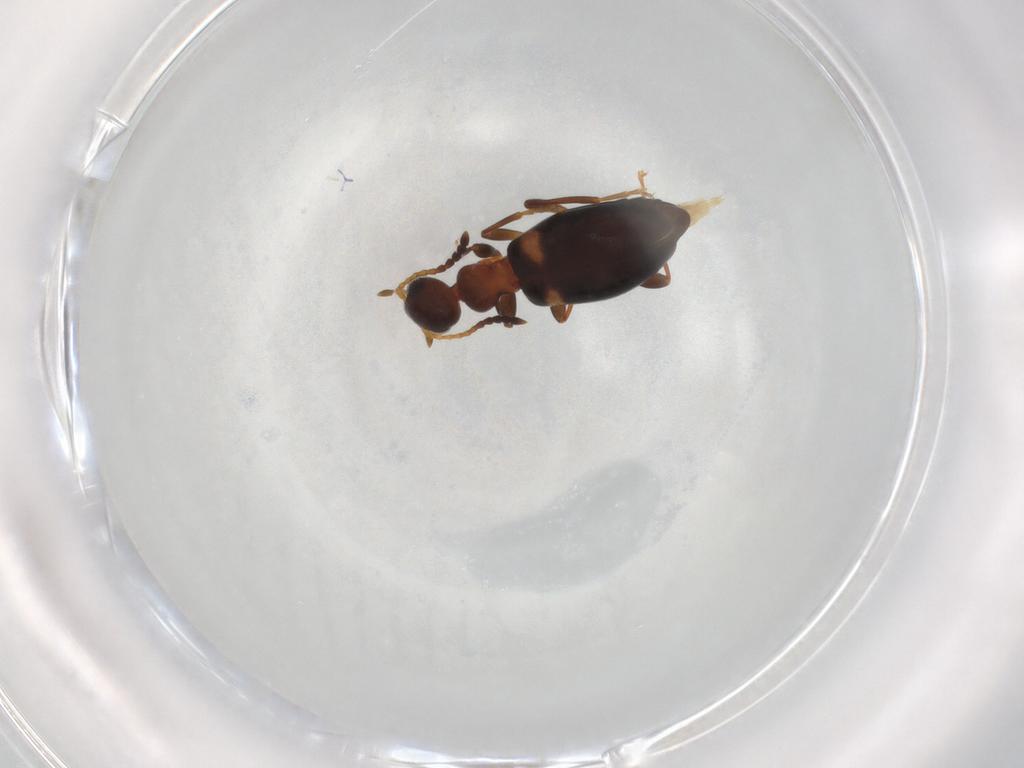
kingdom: Animalia
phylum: Arthropoda
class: Insecta
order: Coleoptera
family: Anthicidae
